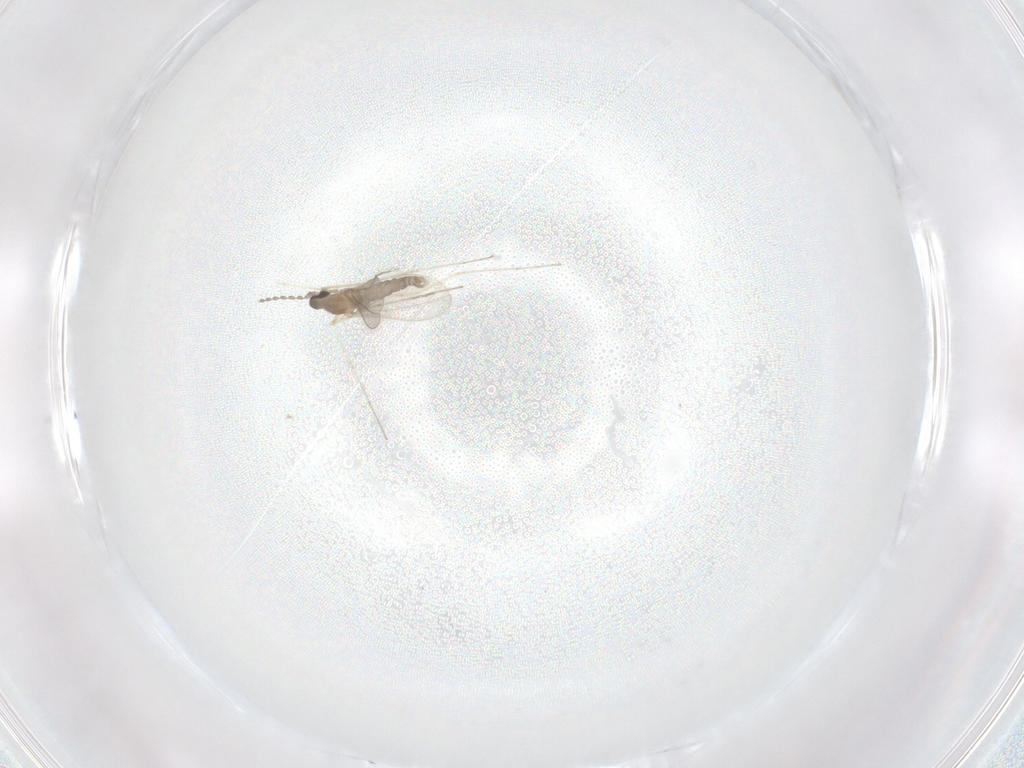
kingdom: Animalia
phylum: Arthropoda
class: Insecta
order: Diptera
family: Cecidomyiidae
